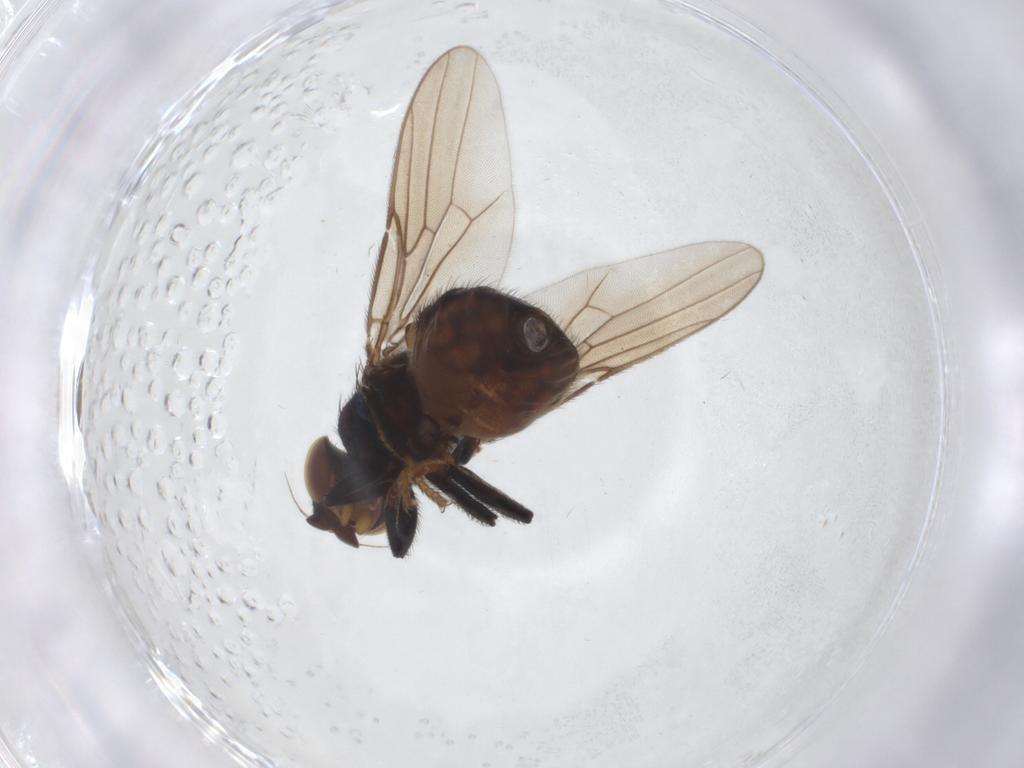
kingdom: Animalia
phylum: Arthropoda
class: Insecta
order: Diptera
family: Chloropidae
